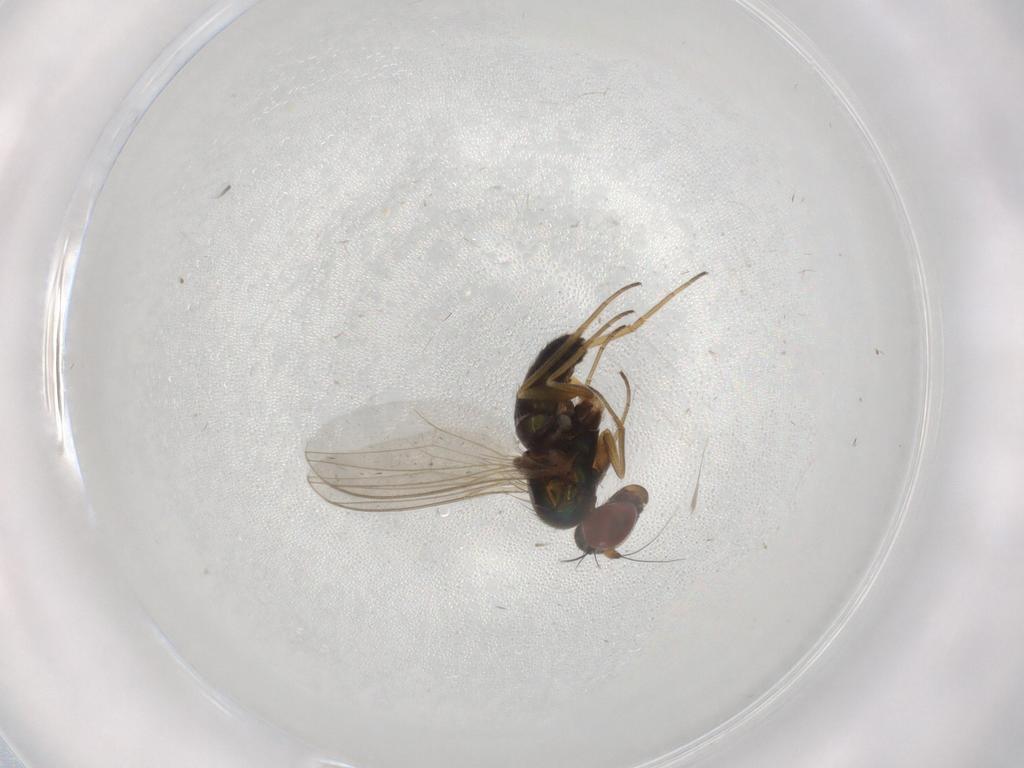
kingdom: Animalia
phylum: Arthropoda
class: Insecta
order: Diptera
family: Dolichopodidae
